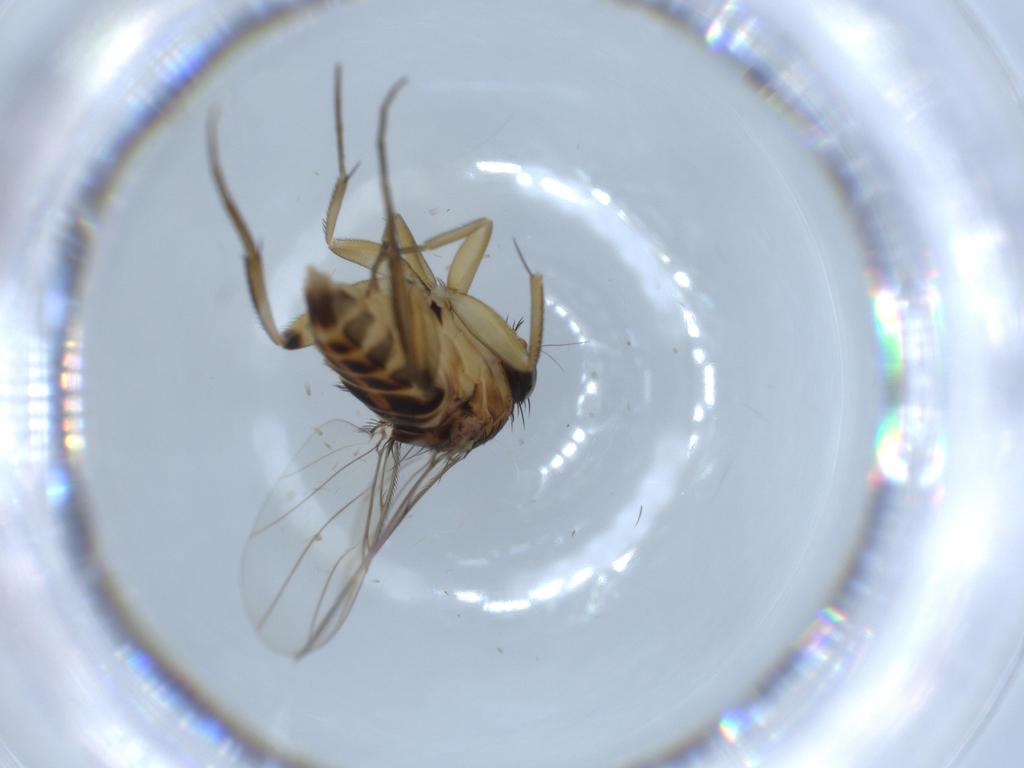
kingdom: Animalia
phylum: Arthropoda
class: Insecta
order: Diptera
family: Phoridae
